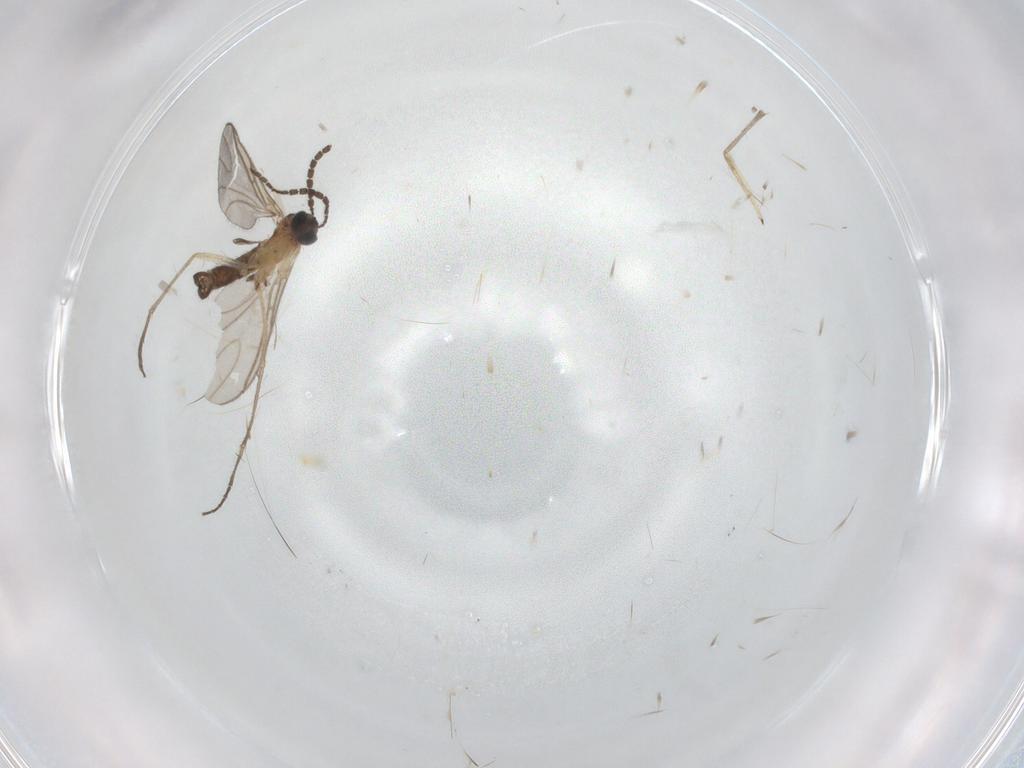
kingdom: Animalia
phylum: Arthropoda
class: Insecta
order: Diptera
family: Sciaridae
